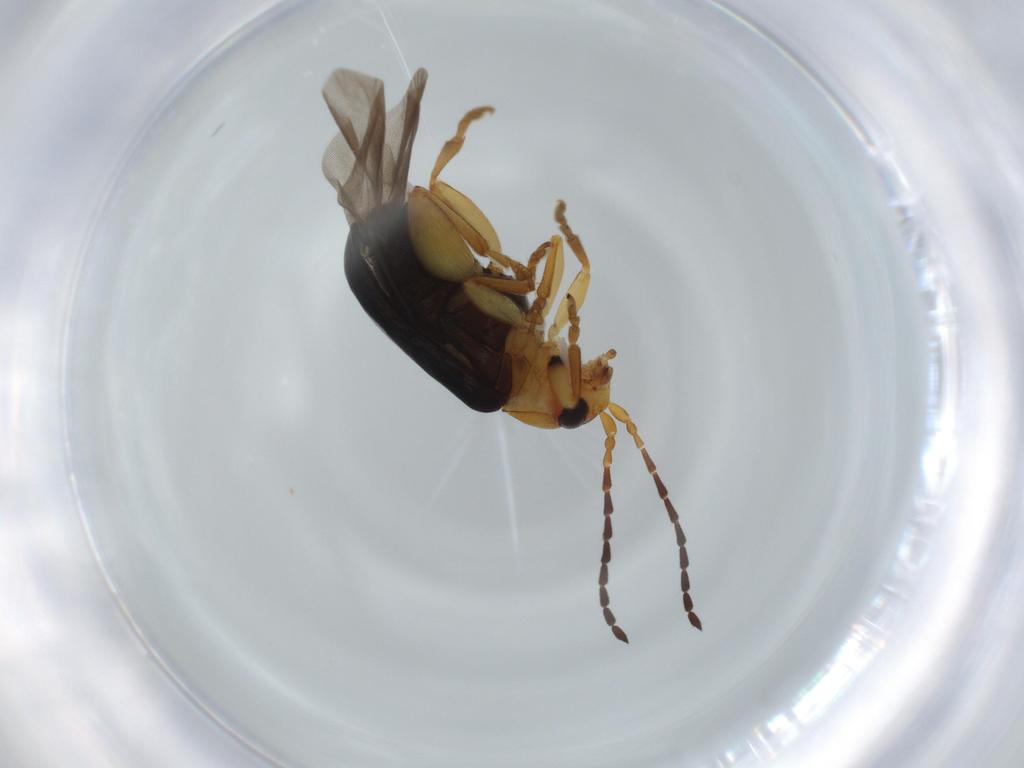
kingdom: Animalia
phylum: Arthropoda
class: Insecta
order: Coleoptera
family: Chrysomelidae
